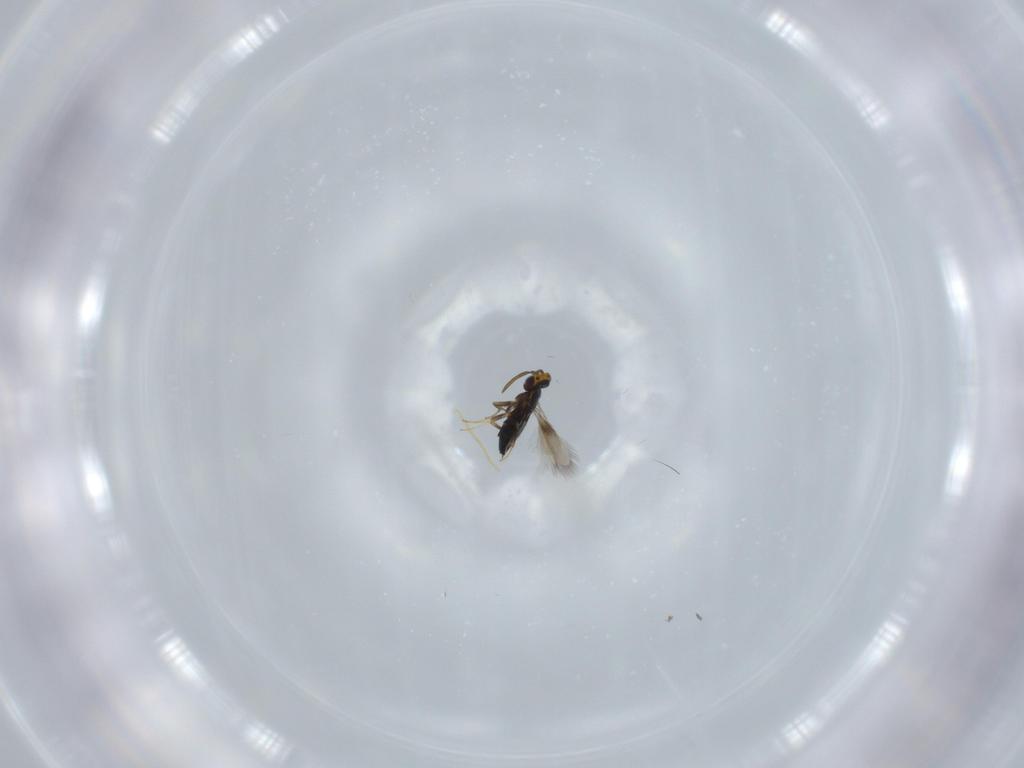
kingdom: Animalia
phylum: Arthropoda
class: Insecta
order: Hymenoptera
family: Signiphoridae
